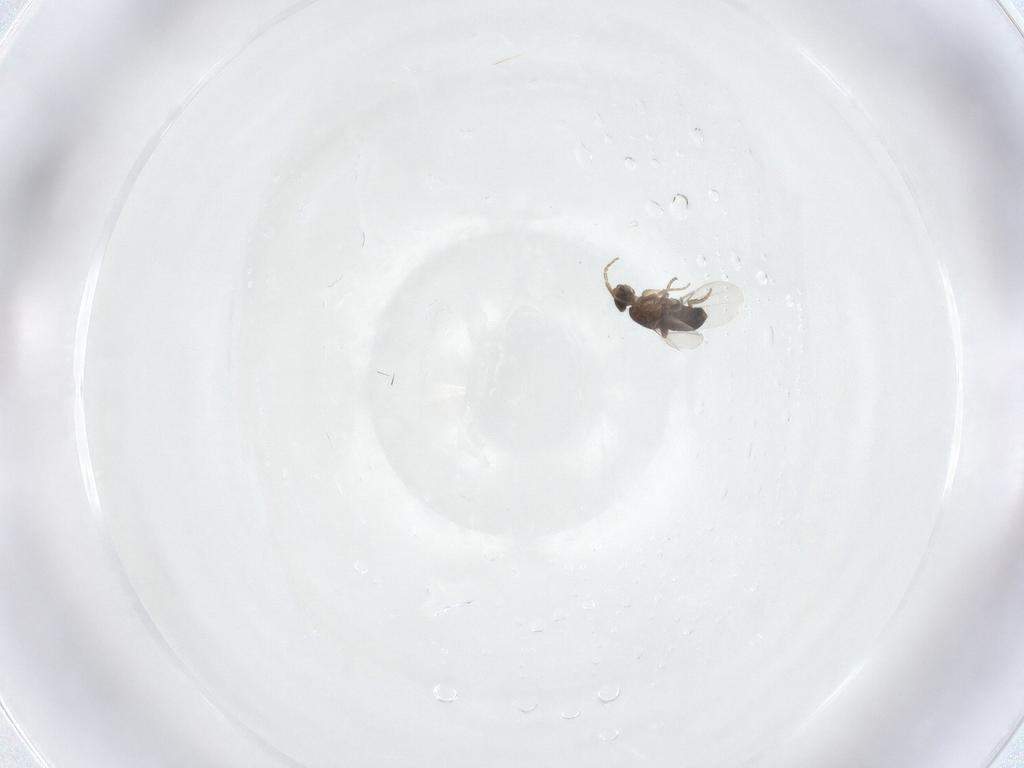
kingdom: Animalia
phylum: Arthropoda
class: Insecta
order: Diptera
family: Phoridae
